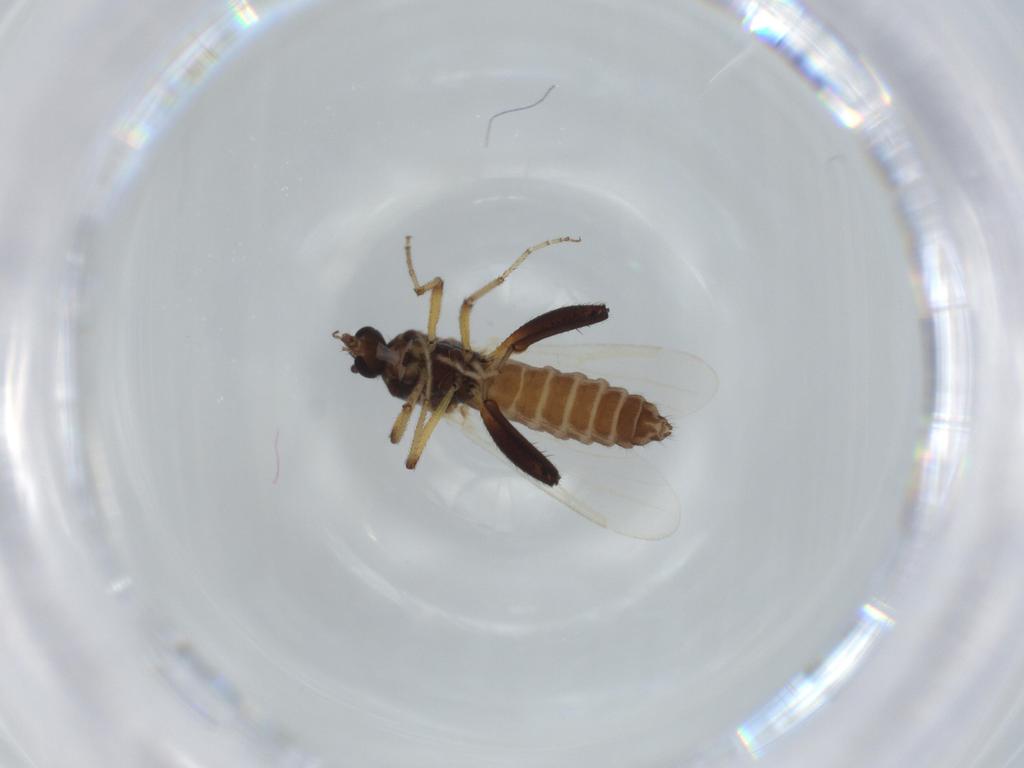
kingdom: Animalia
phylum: Arthropoda
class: Insecta
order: Diptera
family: Ceratopogonidae
